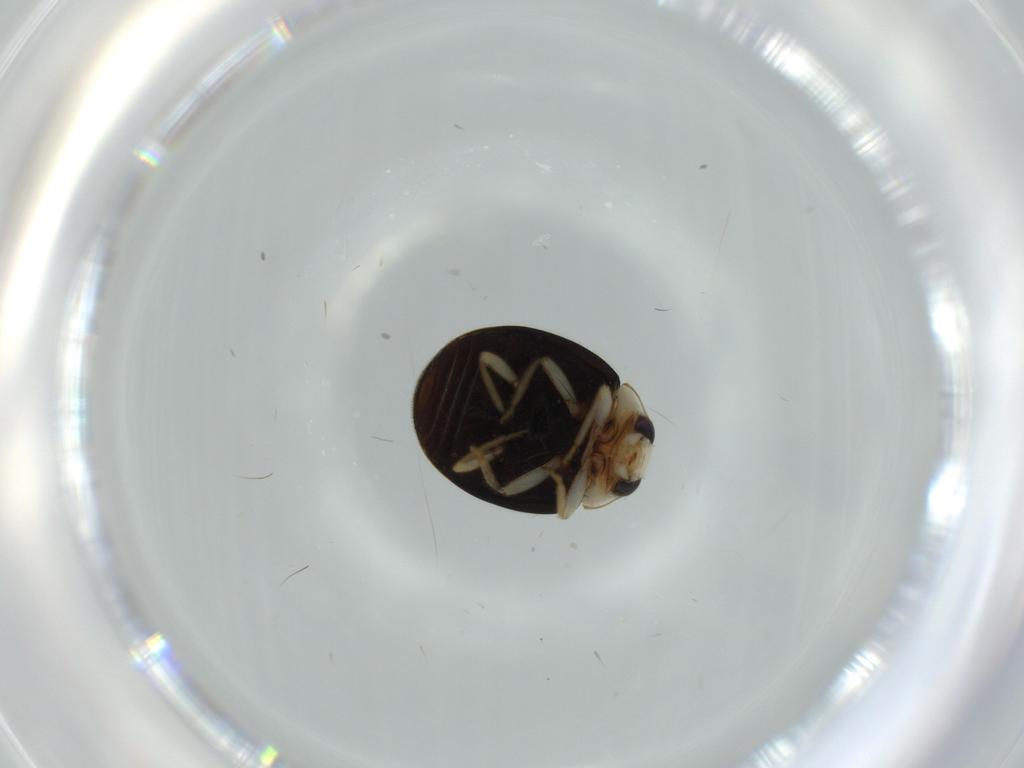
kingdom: Animalia
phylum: Arthropoda
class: Insecta
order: Coleoptera
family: Coccinellidae
